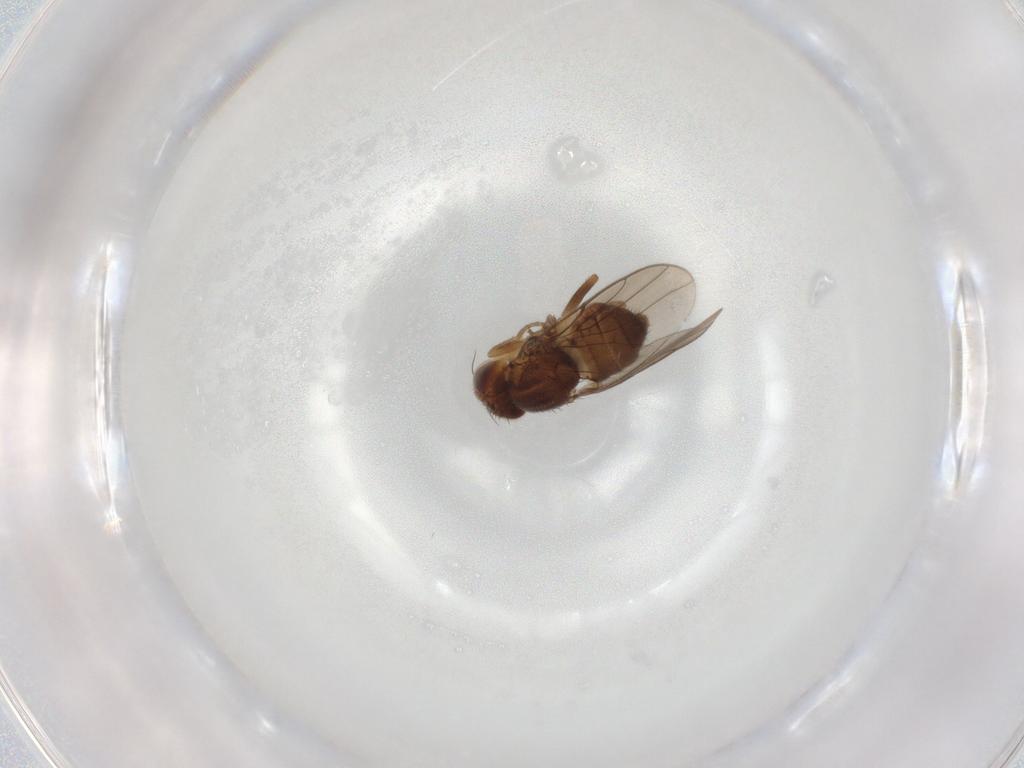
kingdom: Animalia
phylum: Arthropoda
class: Insecta
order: Diptera
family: Chloropidae
